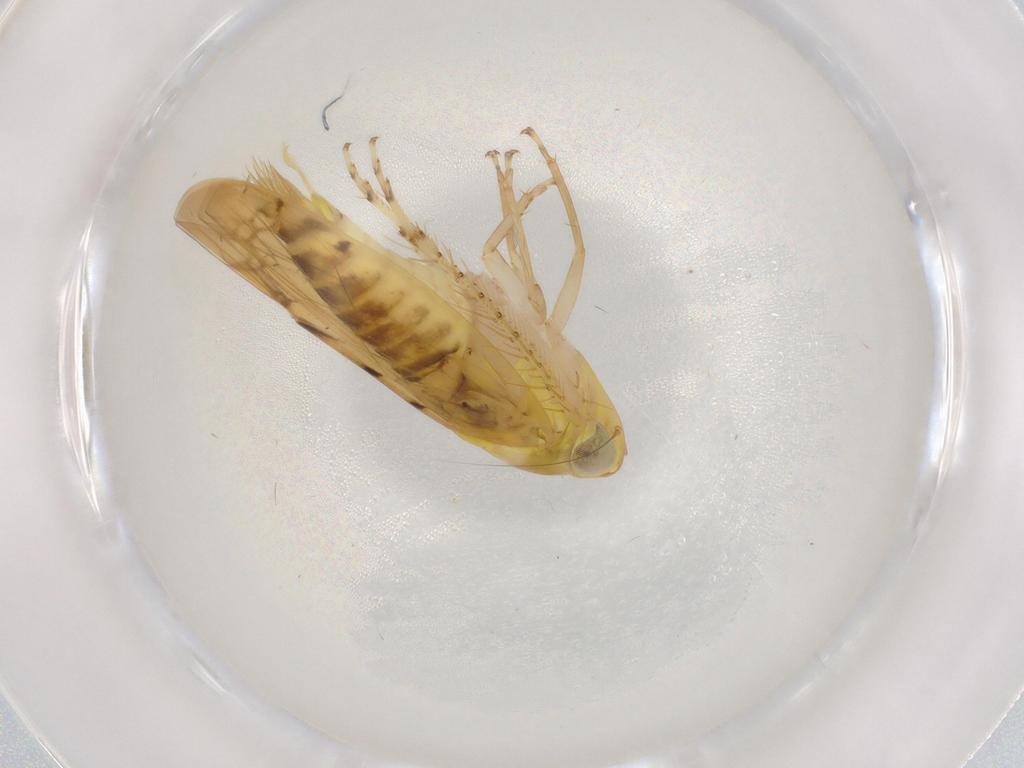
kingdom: Animalia
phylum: Arthropoda
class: Insecta
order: Hemiptera
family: Cicadellidae
